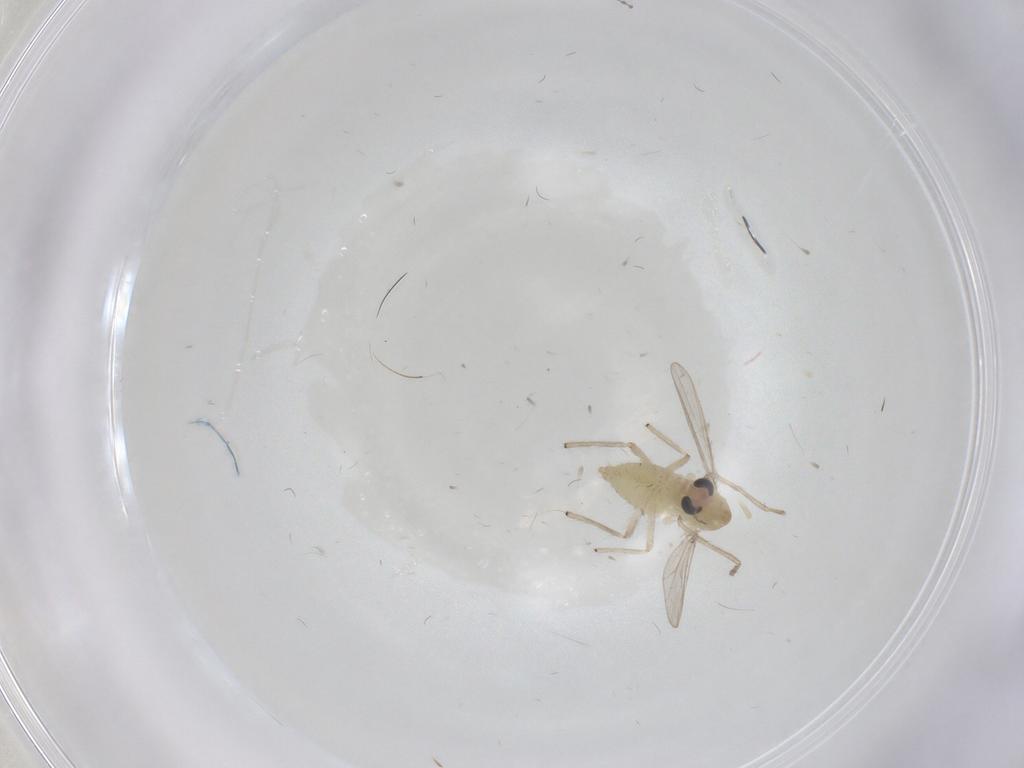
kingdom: Animalia
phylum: Arthropoda
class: Insecta
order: Diptera
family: Chironomidae
